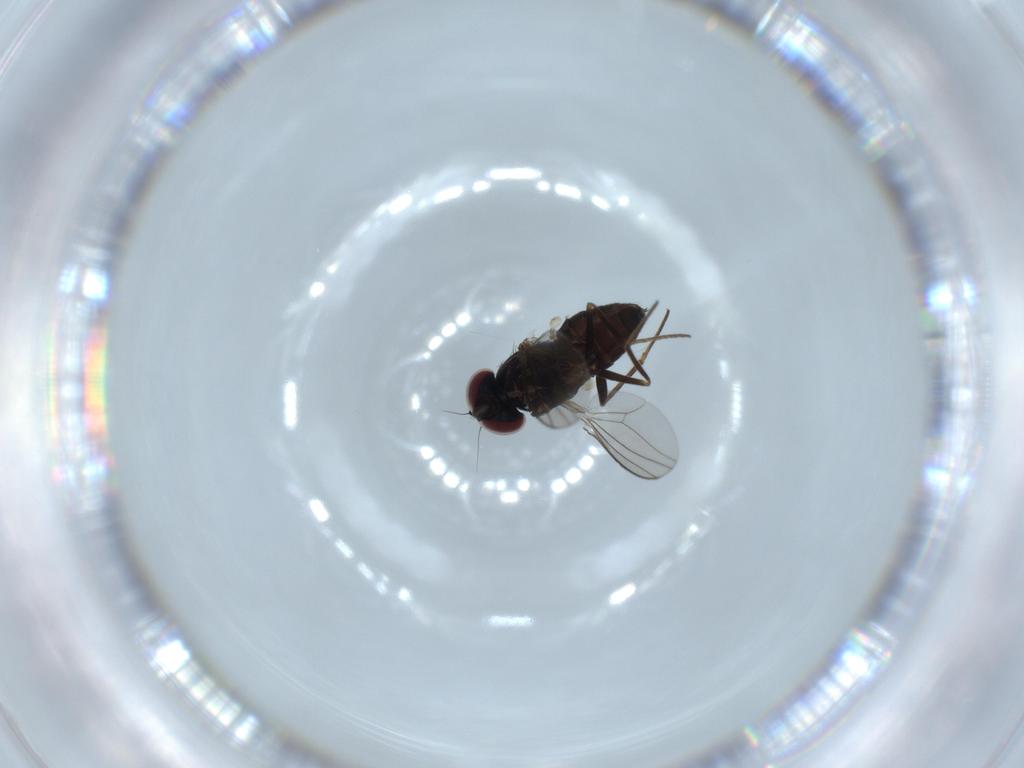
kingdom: Animalia
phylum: Arthropoda
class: Insecta
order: Diptera
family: Dolichopodidae
